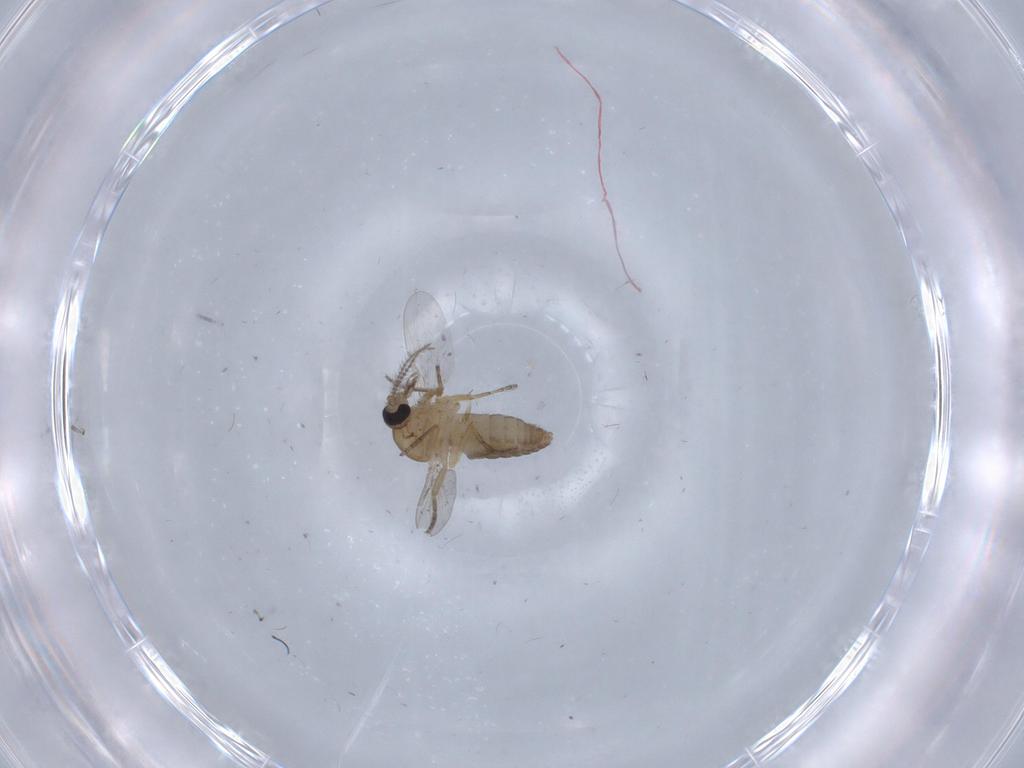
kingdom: Animalia
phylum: Arthropoda
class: Insecta
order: Diptera
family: Ceratopogonidae
